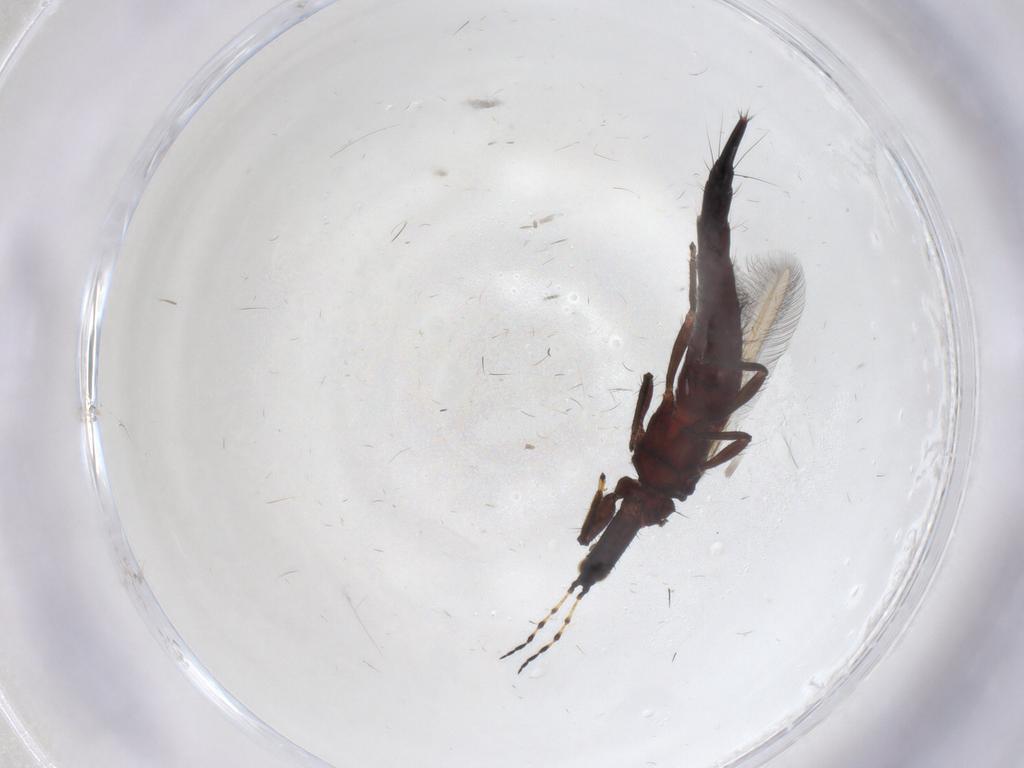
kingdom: Animalia
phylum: Arthropoda
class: Insecta
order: Thysanoptera
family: Phlaeothripidae
